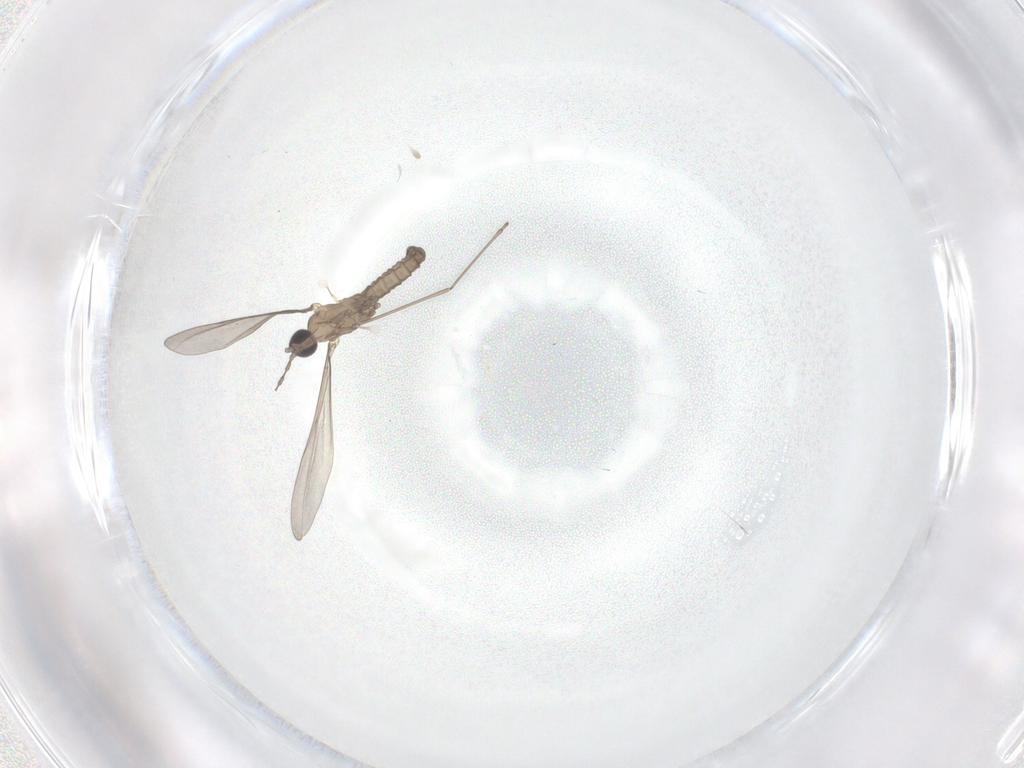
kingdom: Animalia
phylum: Arthropoda
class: Insecta
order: Diptera
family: Cecidomyiidae
